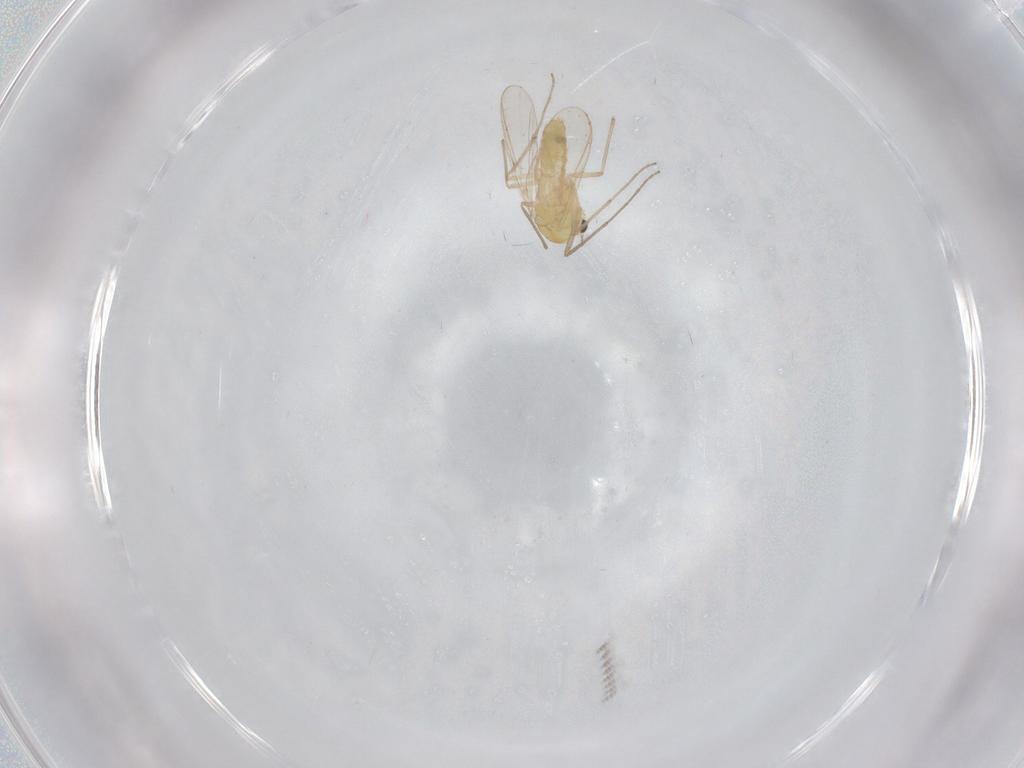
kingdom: Animalia
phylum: Arthropoda
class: Insecta
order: Diptera
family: Chironomidae
